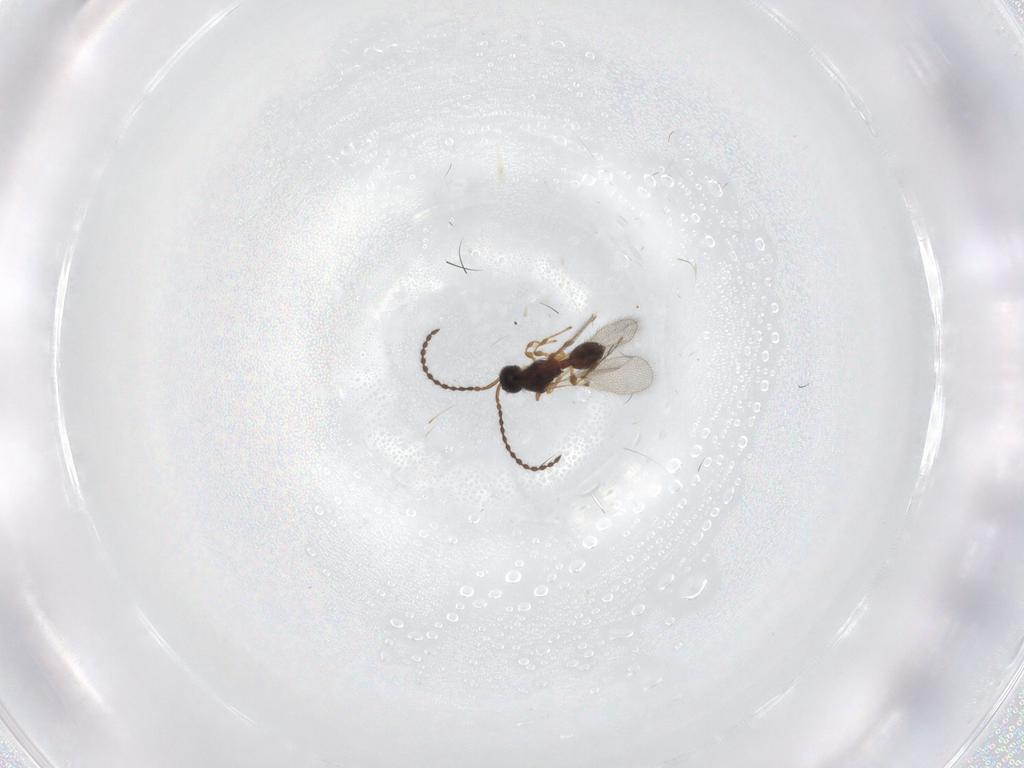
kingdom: Animalia
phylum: Arthropoda
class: Insecta
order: Hymenoptera
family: Diapriidae
